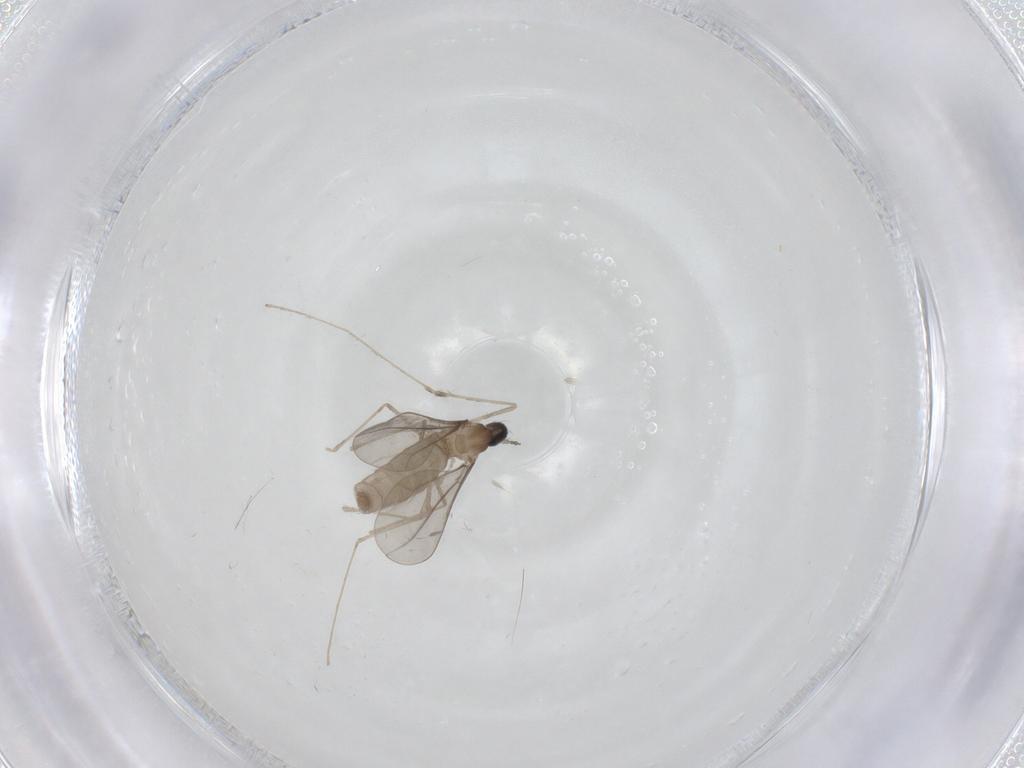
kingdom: Animalia
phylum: Arthropoda
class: Insecta
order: Diptera
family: Cecidomyiidae
